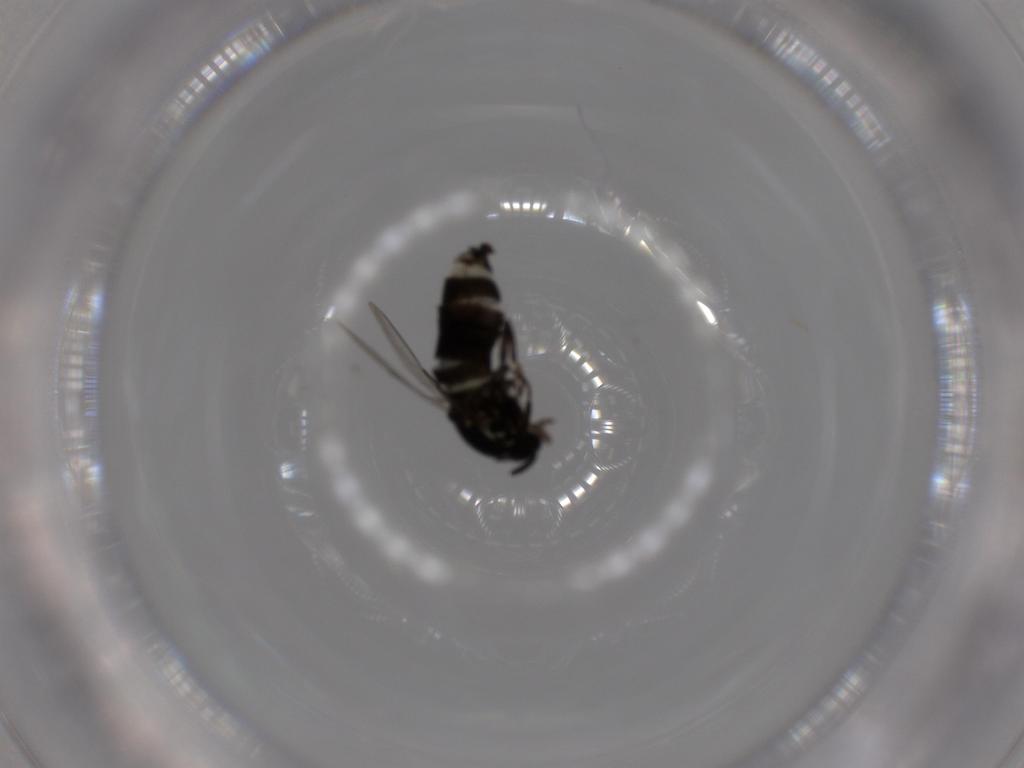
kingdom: Animalia
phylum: Arthropoda
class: Insecta
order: Diptera
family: Scatopsidae
